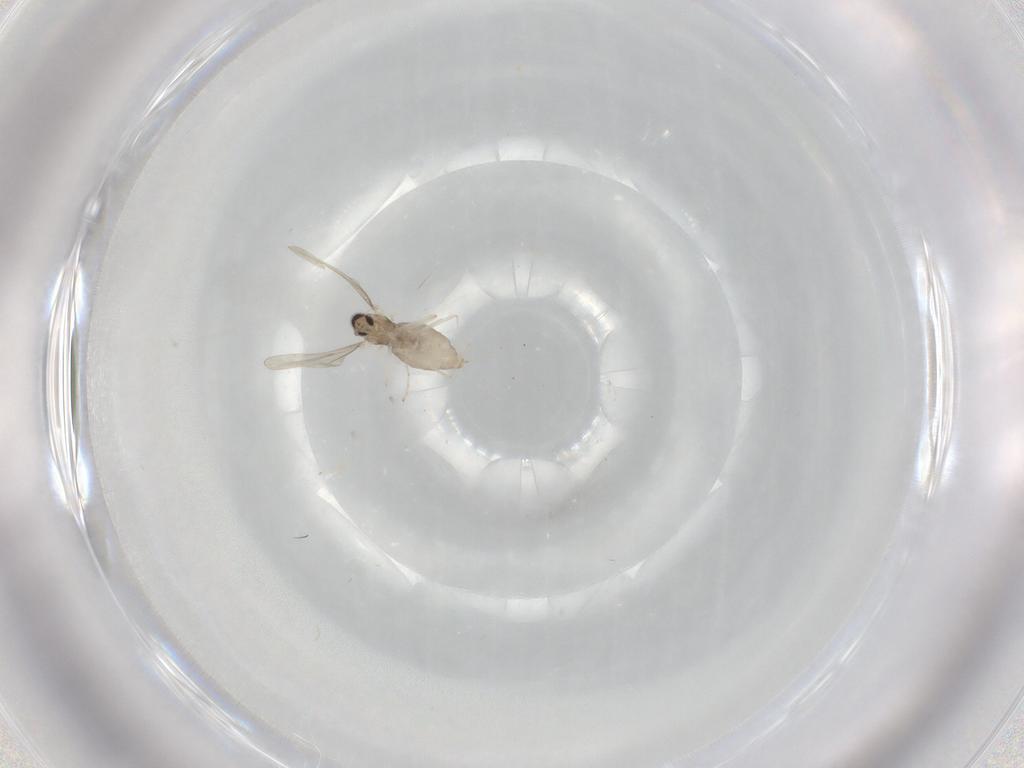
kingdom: Animalia
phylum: Arthropoda
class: Insecta
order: Diptera
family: Cecidomyiidae
